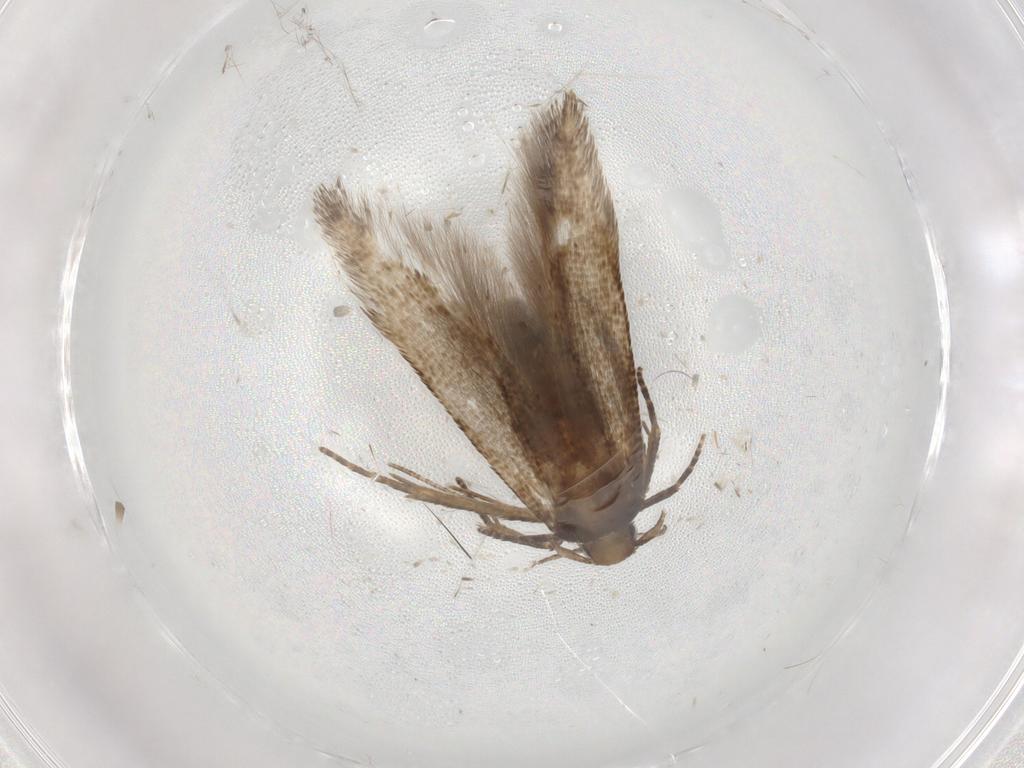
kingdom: Animalia
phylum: Arthropoda
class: Insecta
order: Lepidoptera
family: Cosmopterigidae
